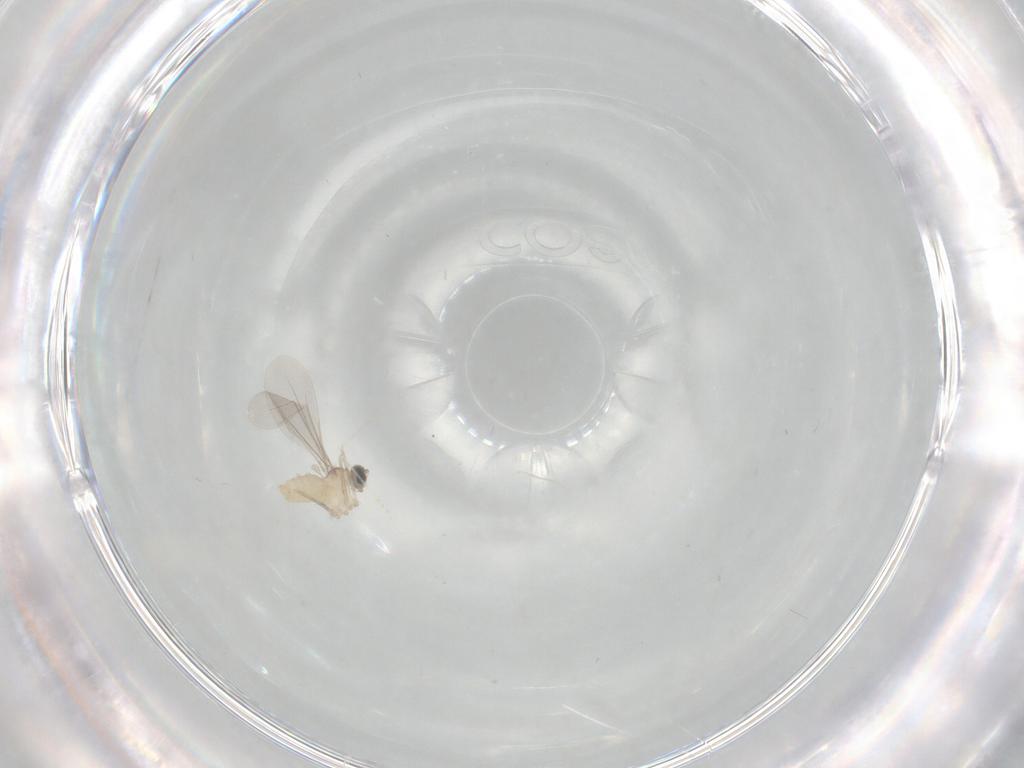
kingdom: Animalia
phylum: Arthropoda
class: Insecta
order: Diptera
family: Cecidomyiidae
